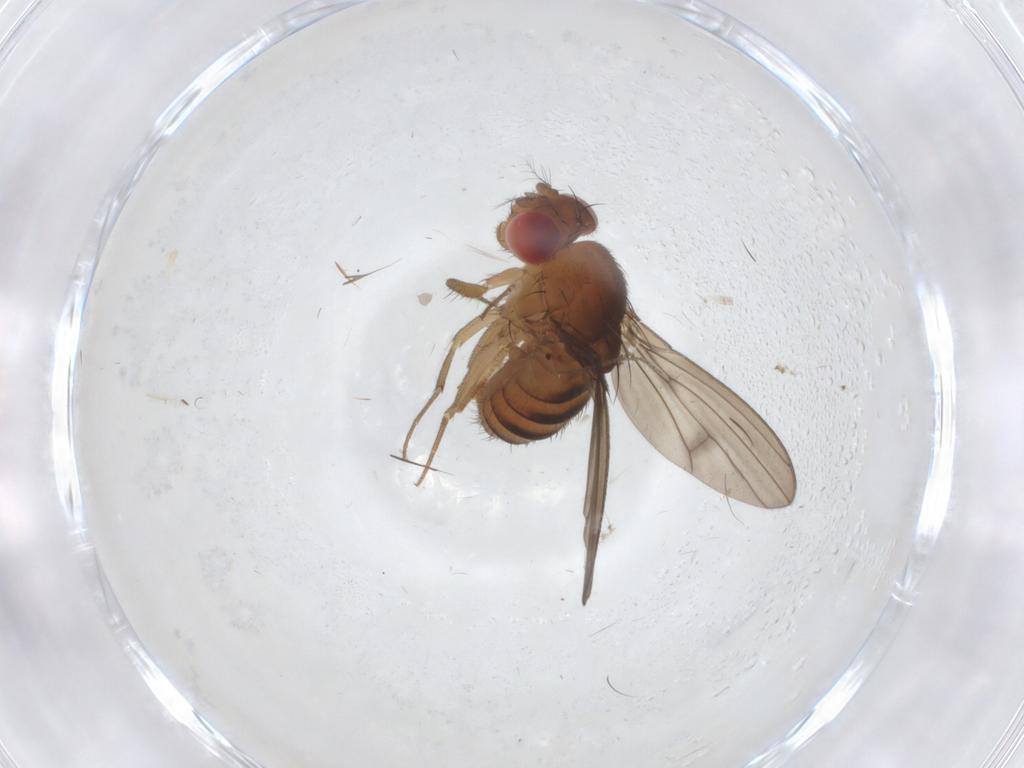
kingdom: Animalia
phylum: Arthropoda
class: Insecta
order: Diptera
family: Drosophilidae
